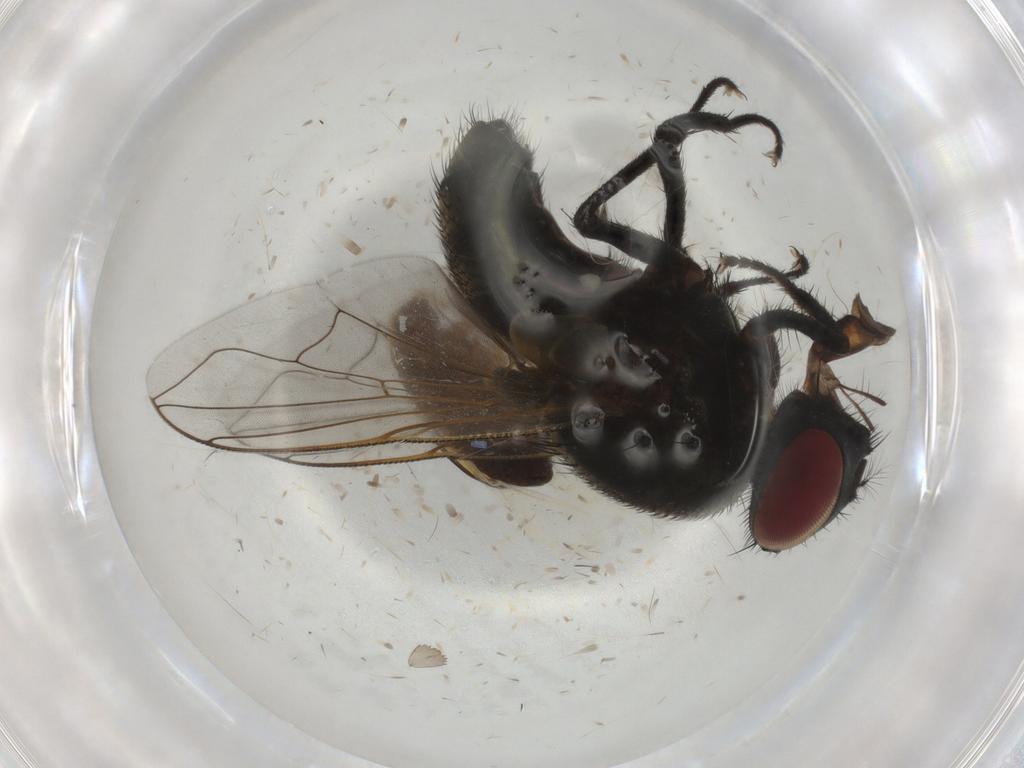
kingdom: Animalia
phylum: Arthropoda
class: Insecta
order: Diptera
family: Muscidae
